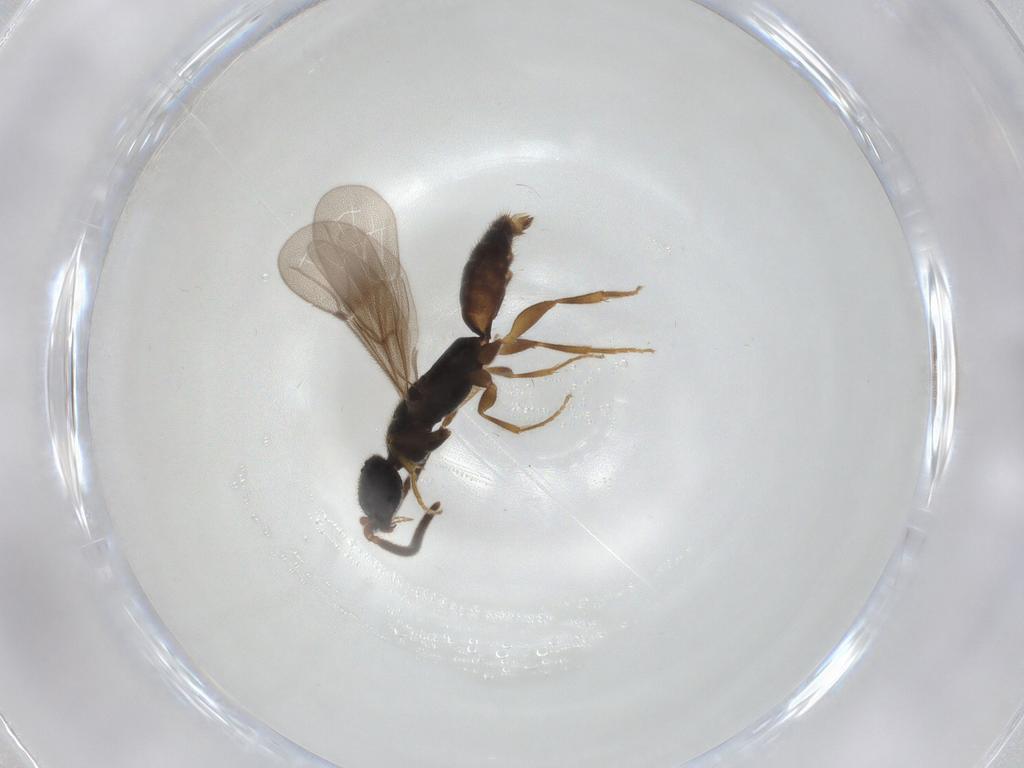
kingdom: Animalia
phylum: Arthropoda
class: Insecta
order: Hymenoptera
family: Bethylidae
